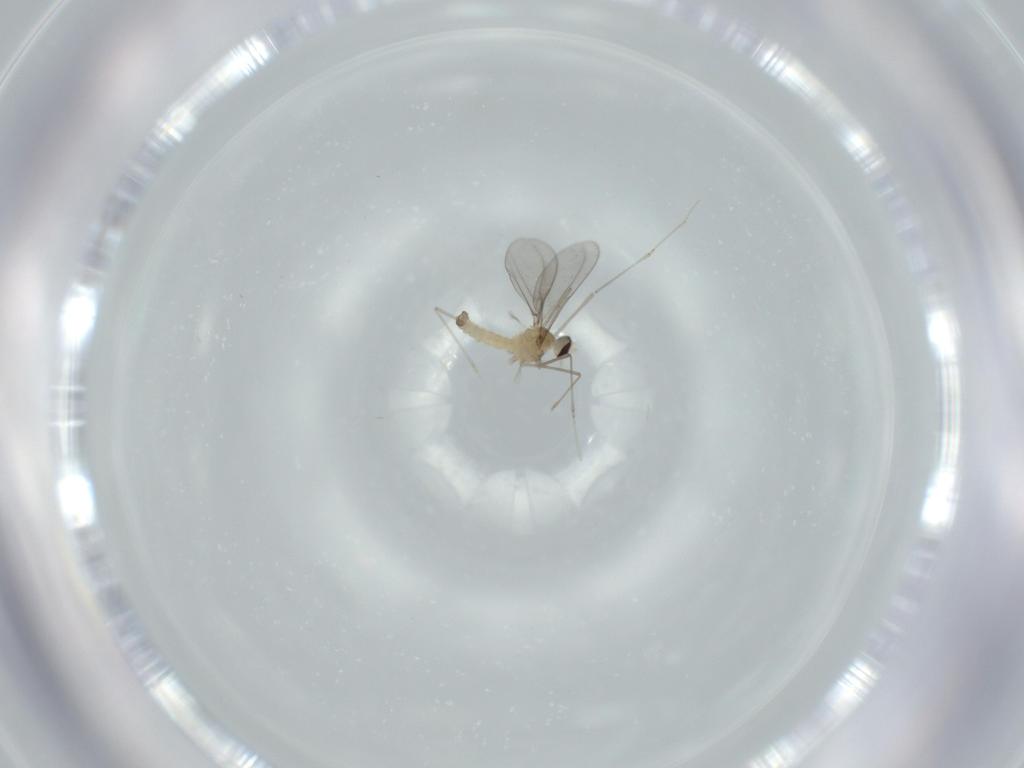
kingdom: Animalia
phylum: Arthropoda
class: Insecta
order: Diptera
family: Cecidomyiidae
